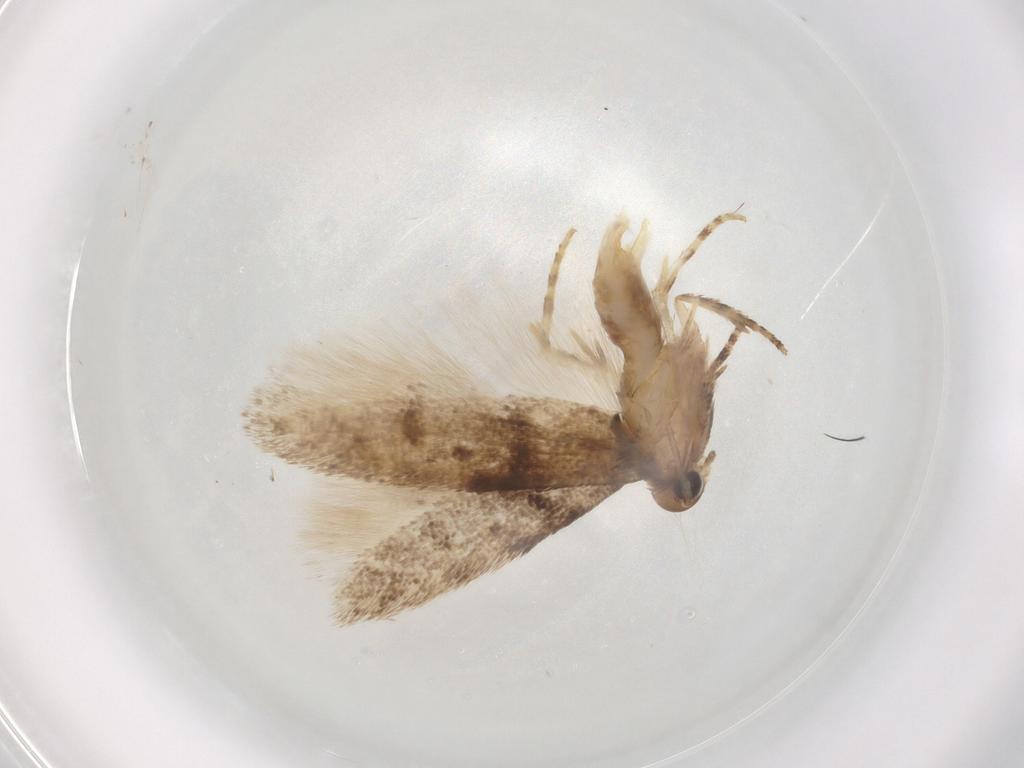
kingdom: Animalia
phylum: Arthropoda
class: Insecta
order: Lepidoptera
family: Gelechiidae
